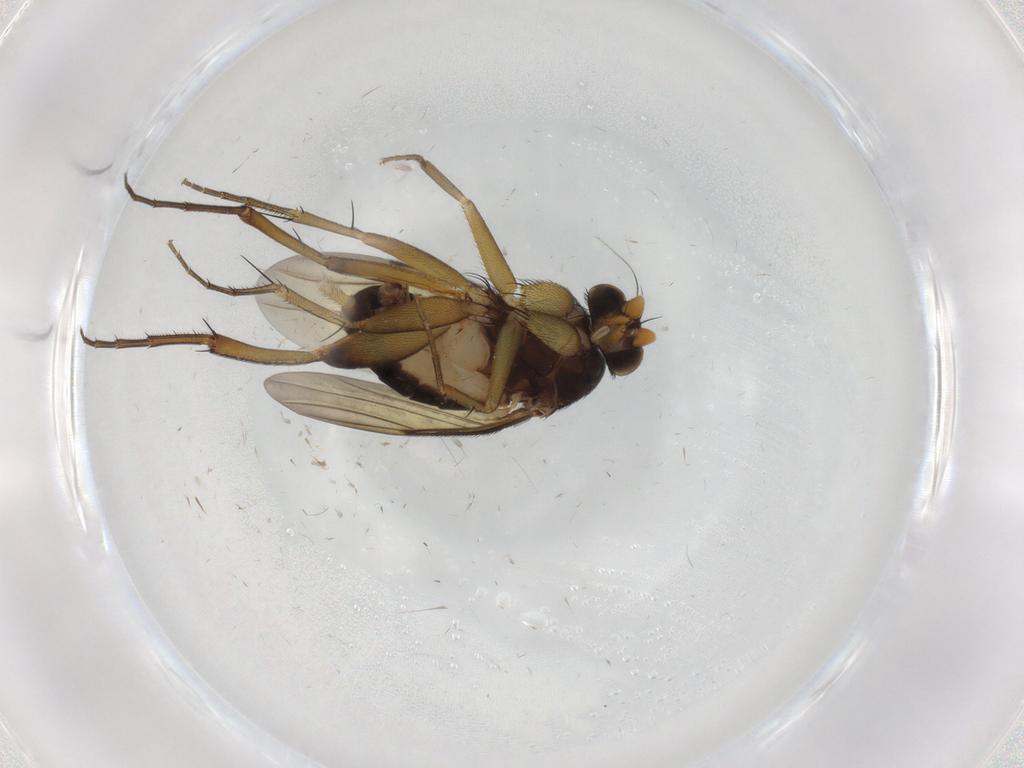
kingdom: Animalia
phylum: Arthropoda
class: Insecta
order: Diptera
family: Phoridae
